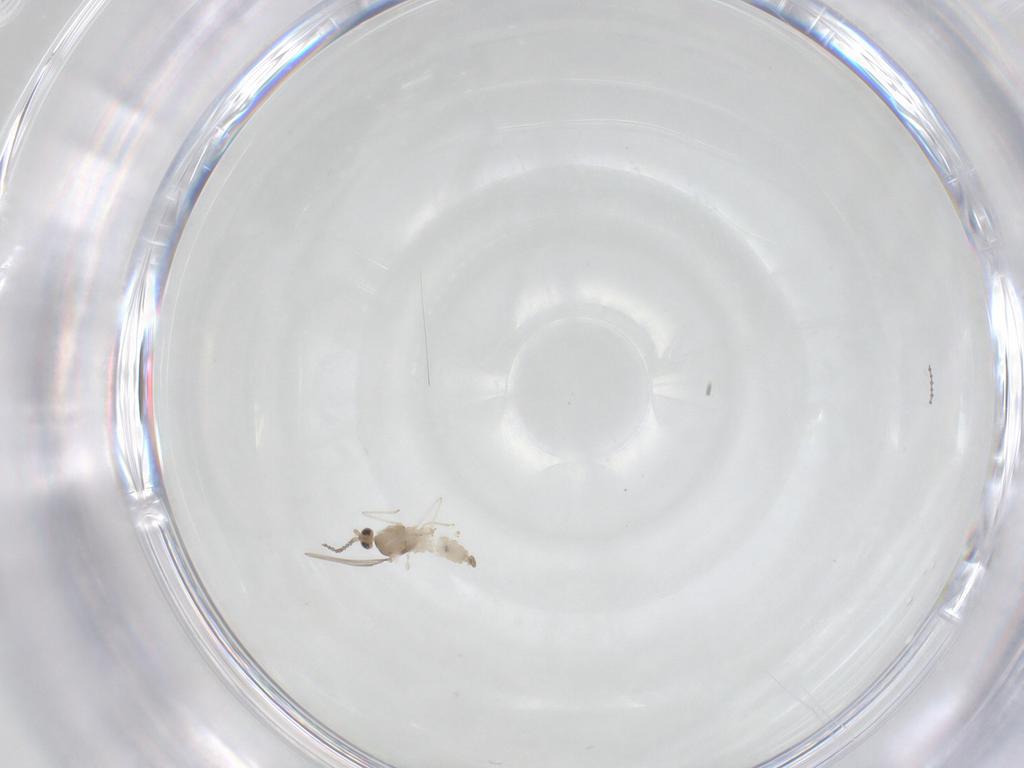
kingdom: Animalia
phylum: Arthropoda
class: Insecta
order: Diptera
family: Cecidomyiidae
